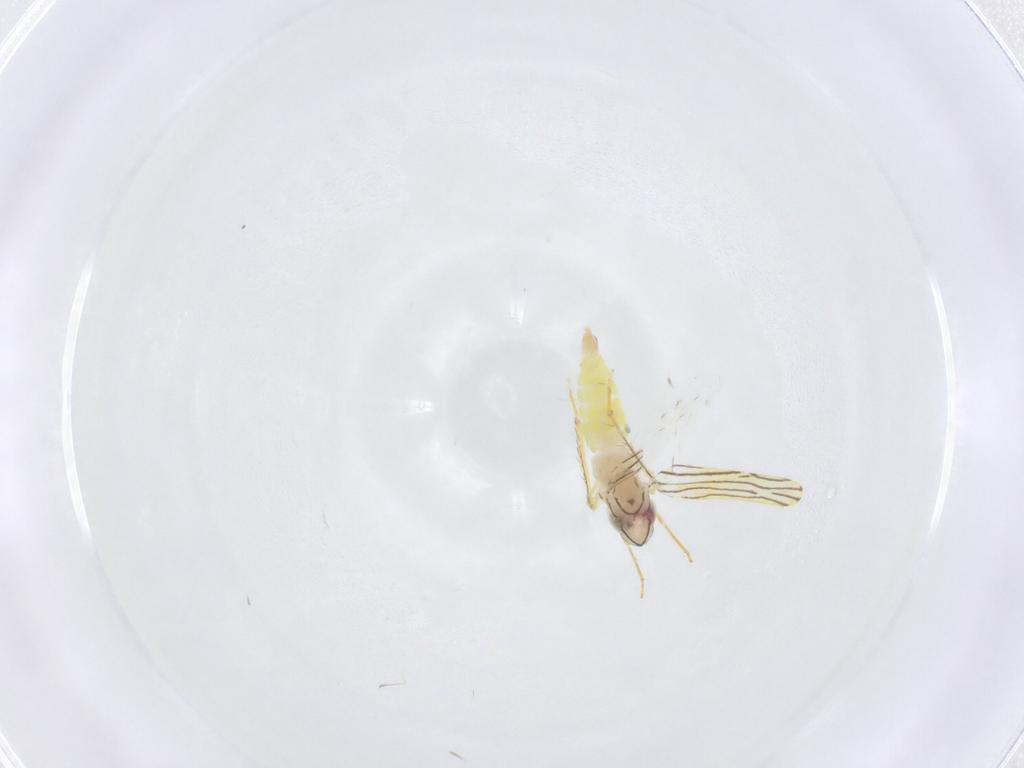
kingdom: Animalia
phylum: Arthropoda
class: Insecta
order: Hemiptera
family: Cicadellidae
